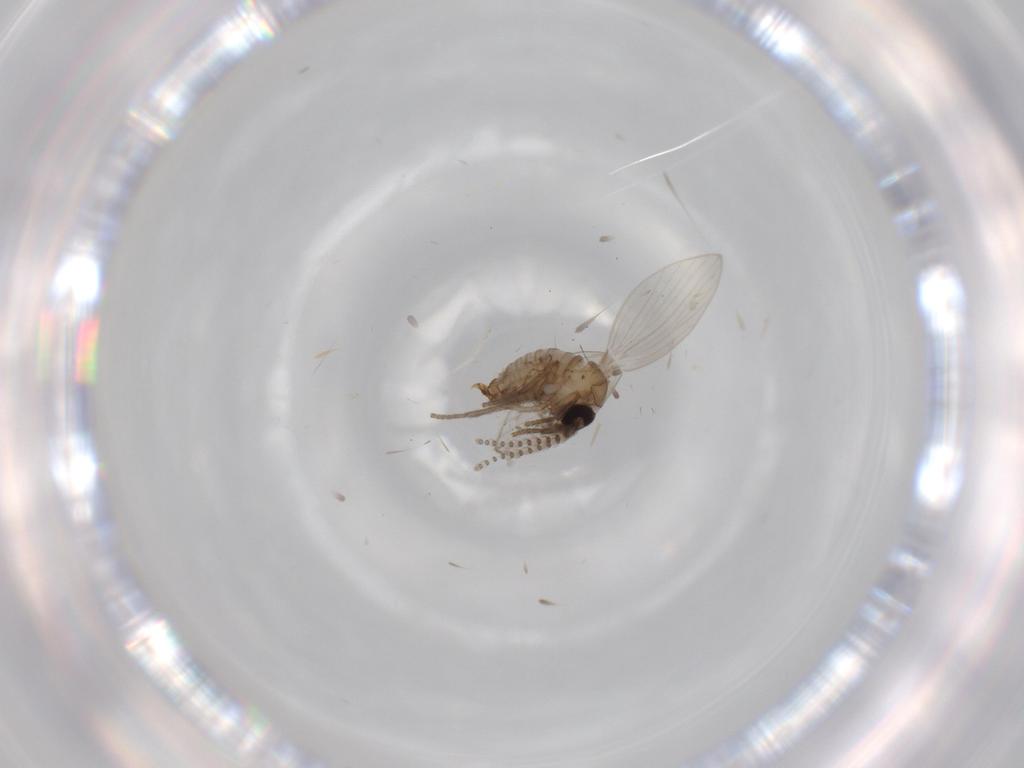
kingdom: Animalia
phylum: Arthropoda
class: Insecta
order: Diptera
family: Psychodidae
